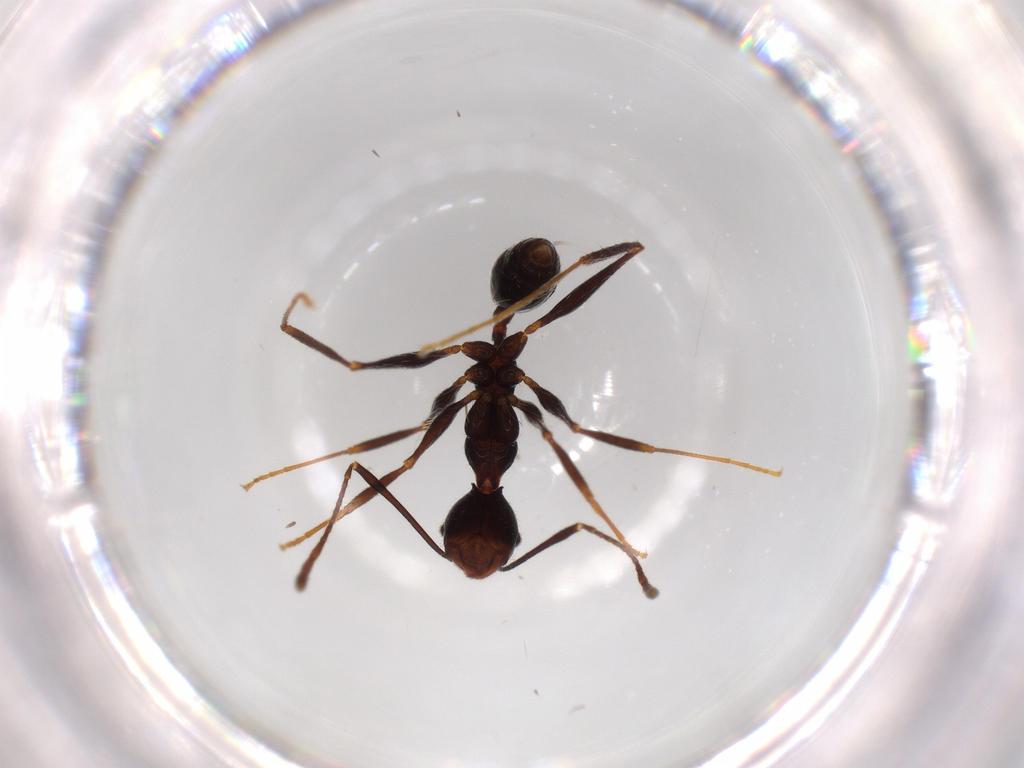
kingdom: Animalia
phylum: Arthropoda
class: Insecta
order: Hymenoptera
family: Formicidae
